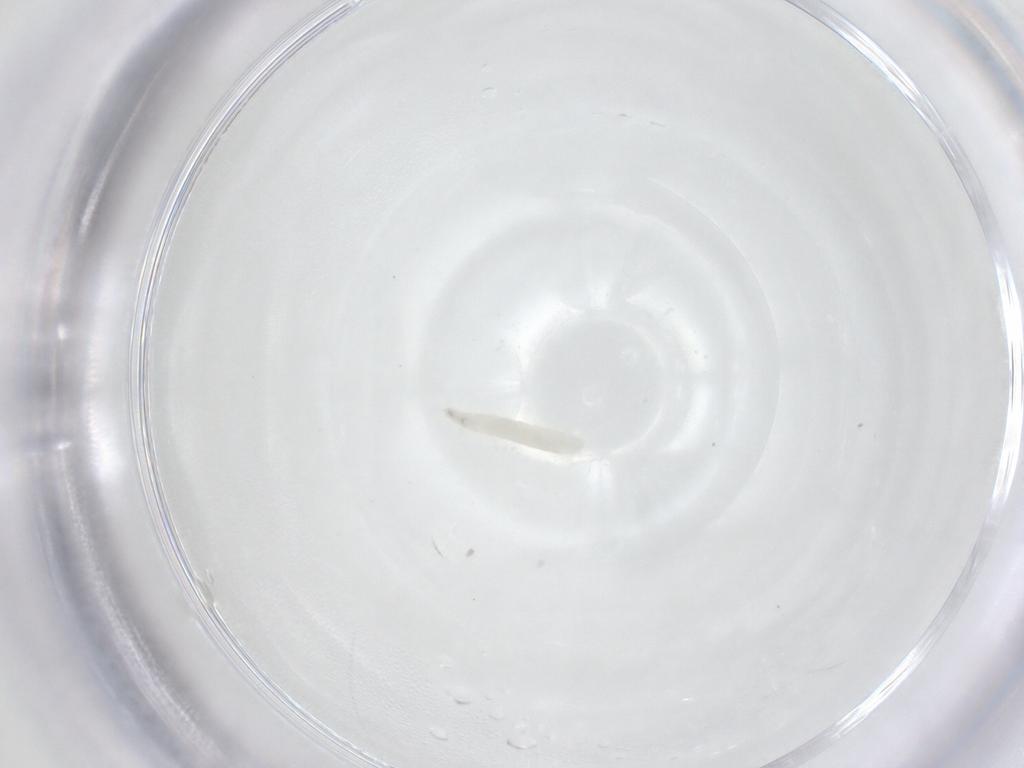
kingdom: Animalia
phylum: Arthropoda
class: Insecta
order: Diptera
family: Sarcophagidae
